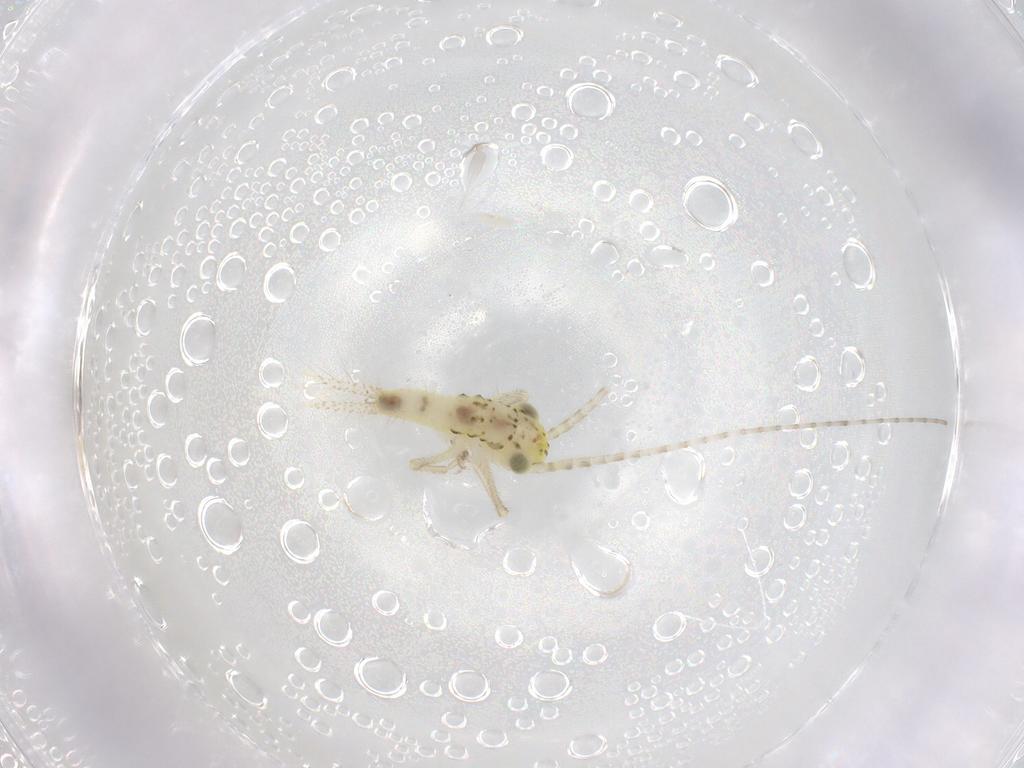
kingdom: Animalia
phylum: Arthropoda
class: Insecta
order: Orthoptera
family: Trigonidiidae
